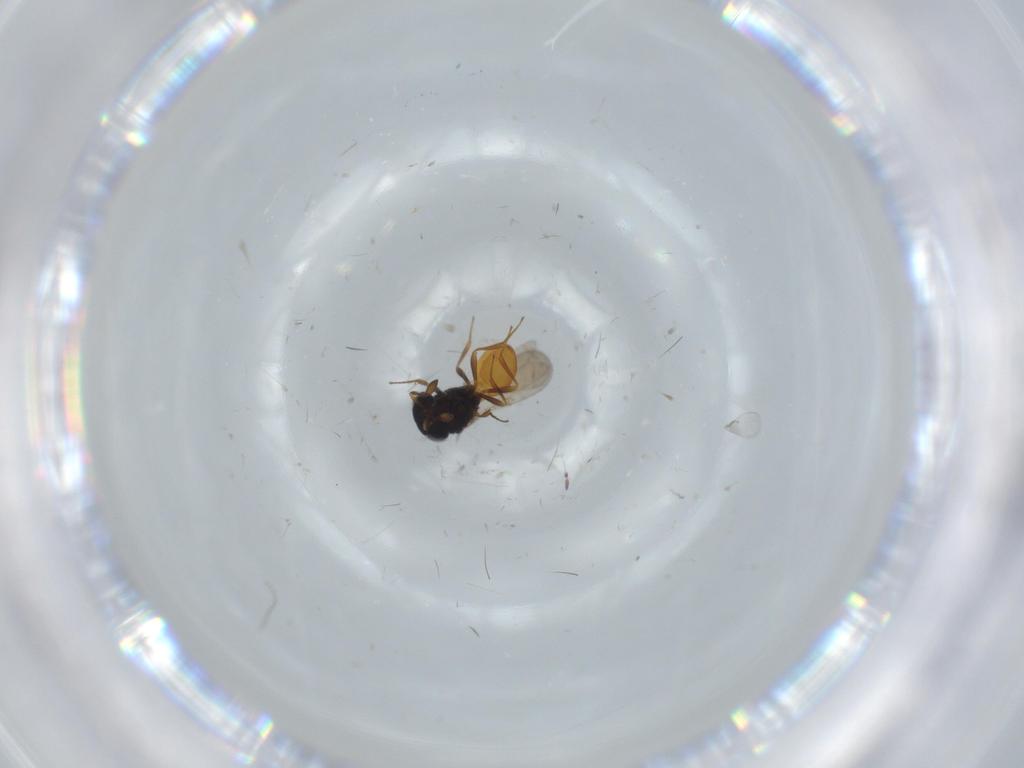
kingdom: Animalia
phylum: Arthropoda
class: Insecta
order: Hymenoptera
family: Scelionidae
